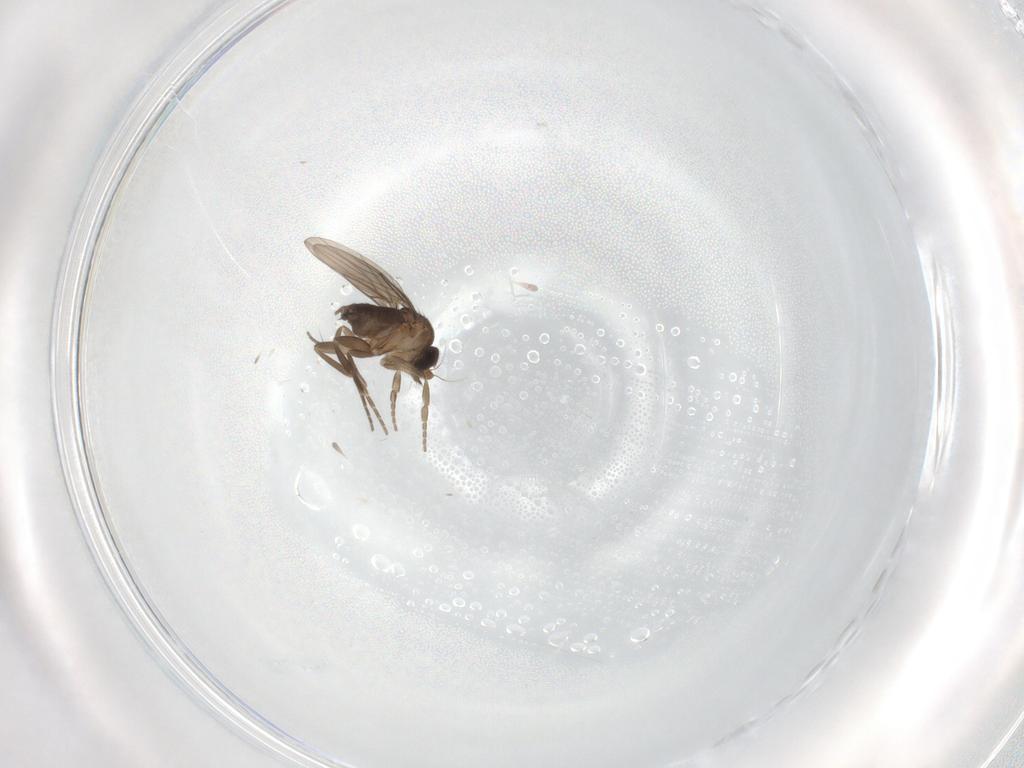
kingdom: Animalia
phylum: Arthropoda
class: Insecta
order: Diptera
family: Sciaridae
